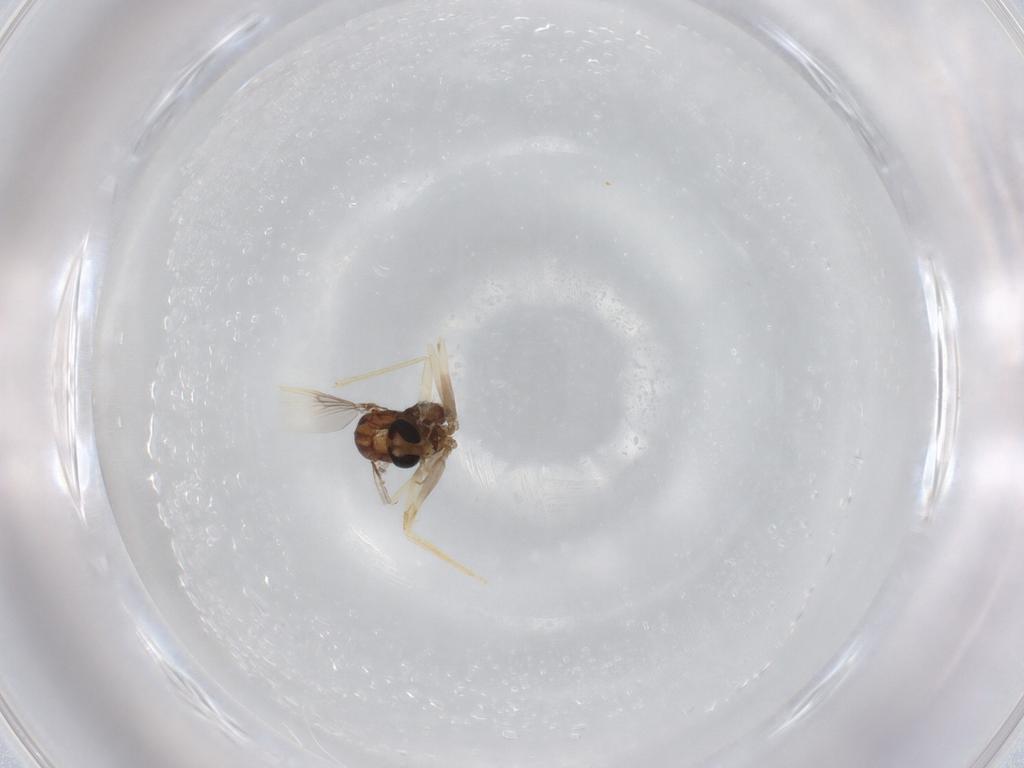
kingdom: Animalia
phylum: Arthropoda
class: Insecta
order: Diptera
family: Chironomidae
